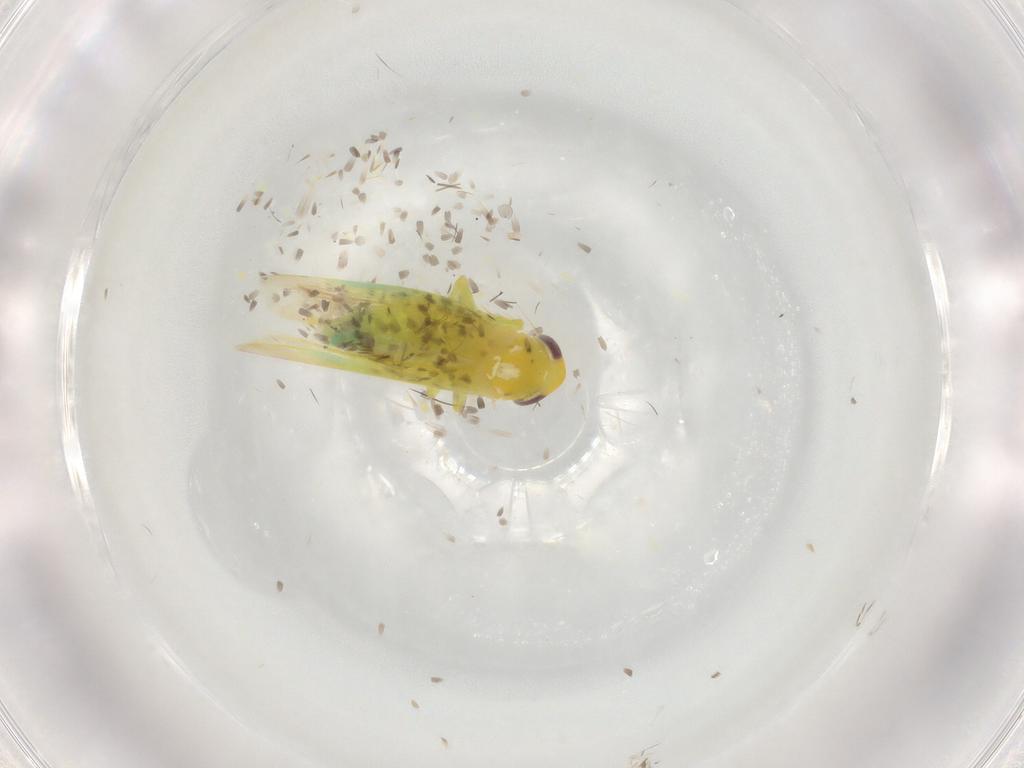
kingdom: Animalia
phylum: Arthropoda
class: Insecta
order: Hemiptera
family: Cicadellidae
